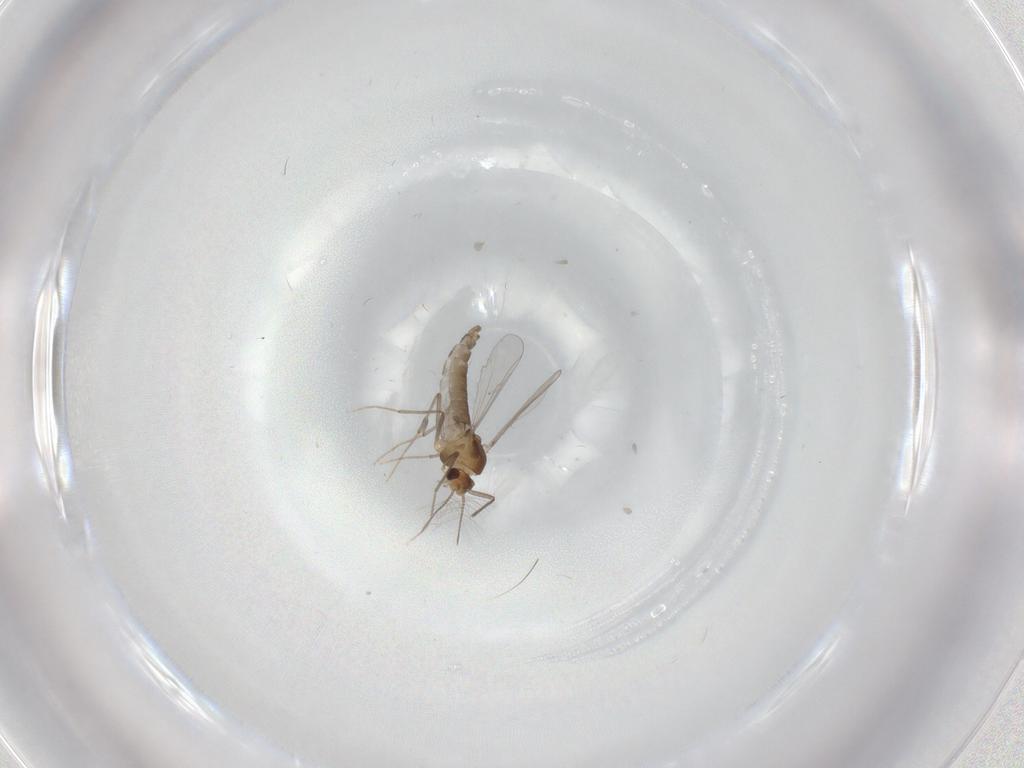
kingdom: Animalia
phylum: Arthropoda
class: Insecta
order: Diptera
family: Chironomidae
